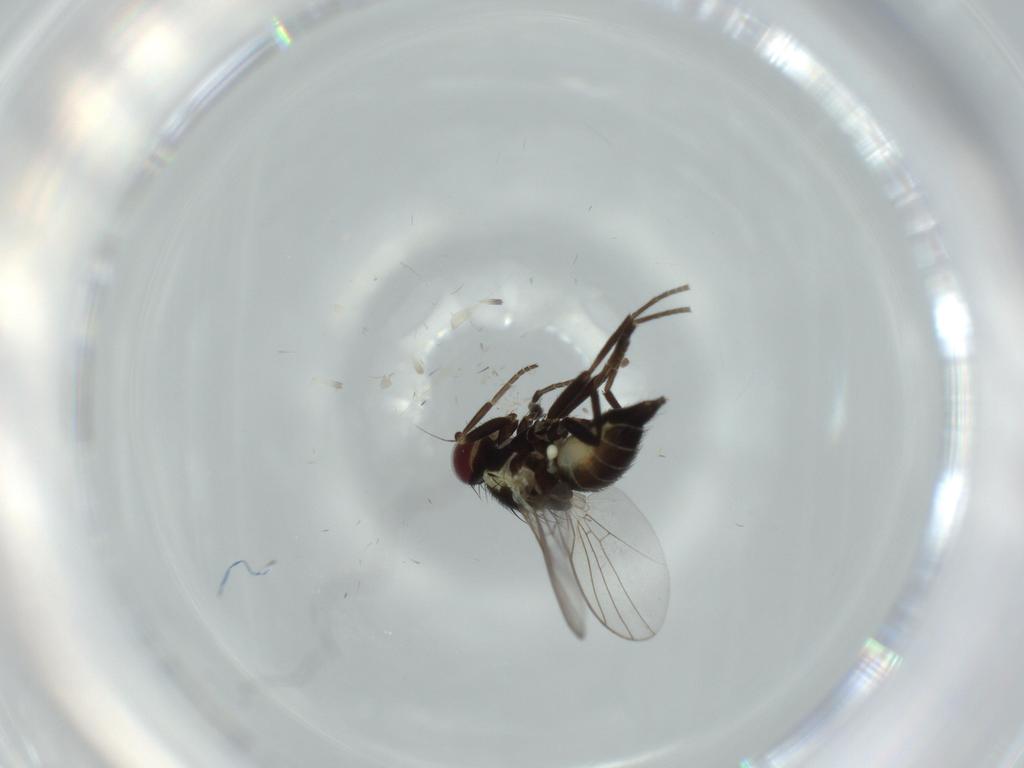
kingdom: Animalia
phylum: Arthropoda
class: Insecta
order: Diptera
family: Agromyzidae
